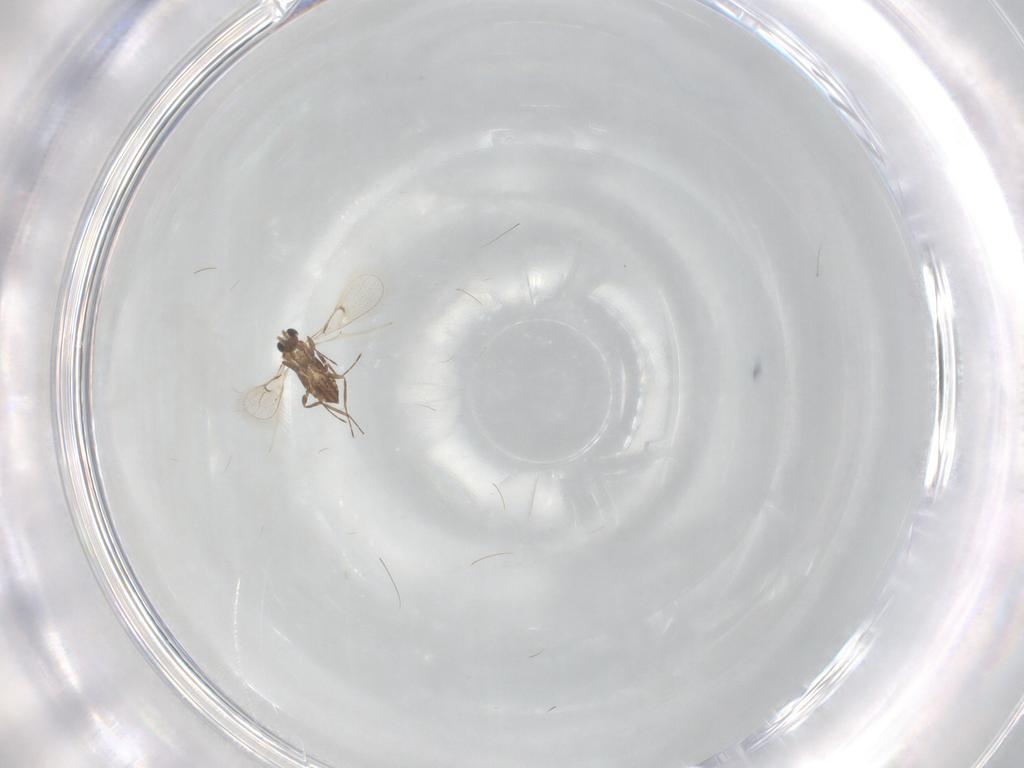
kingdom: Animalia
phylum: Arthropoda
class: Insecta
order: Hymenoptera
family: Trichogrammatidae
